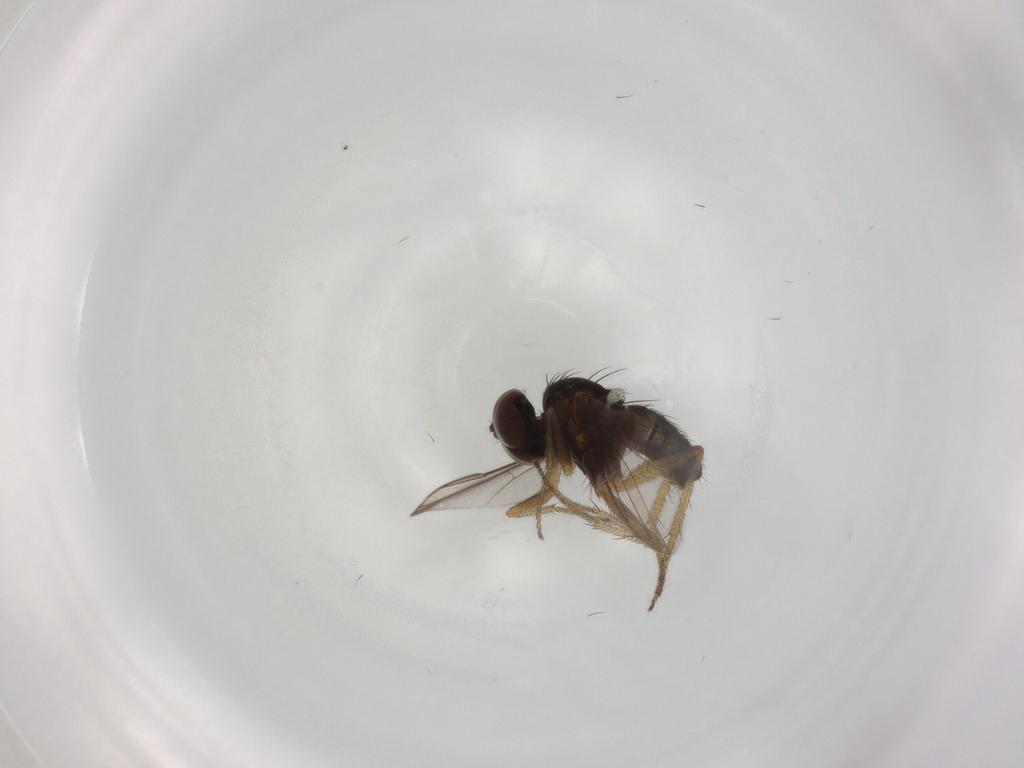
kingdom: Animalia
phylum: Arthropoda
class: Insecta
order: Diptera
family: Dolichopodidae
